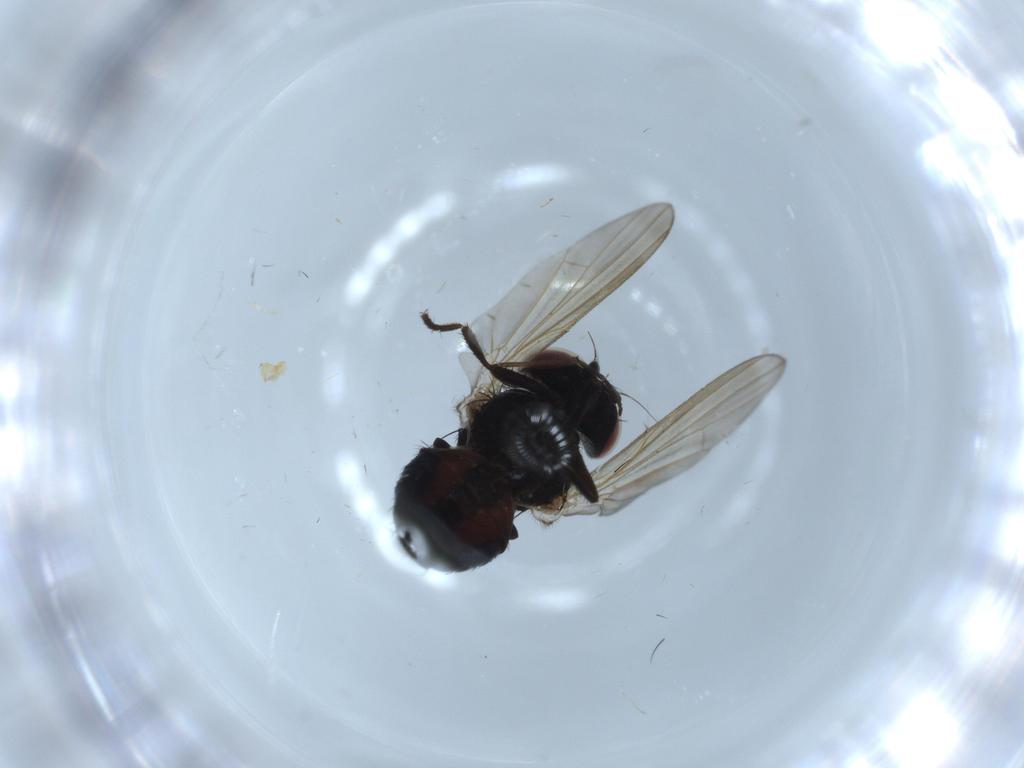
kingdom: Animalia
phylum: Arthropoda
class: Insecta
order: Diptera
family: Lonchaeidae
